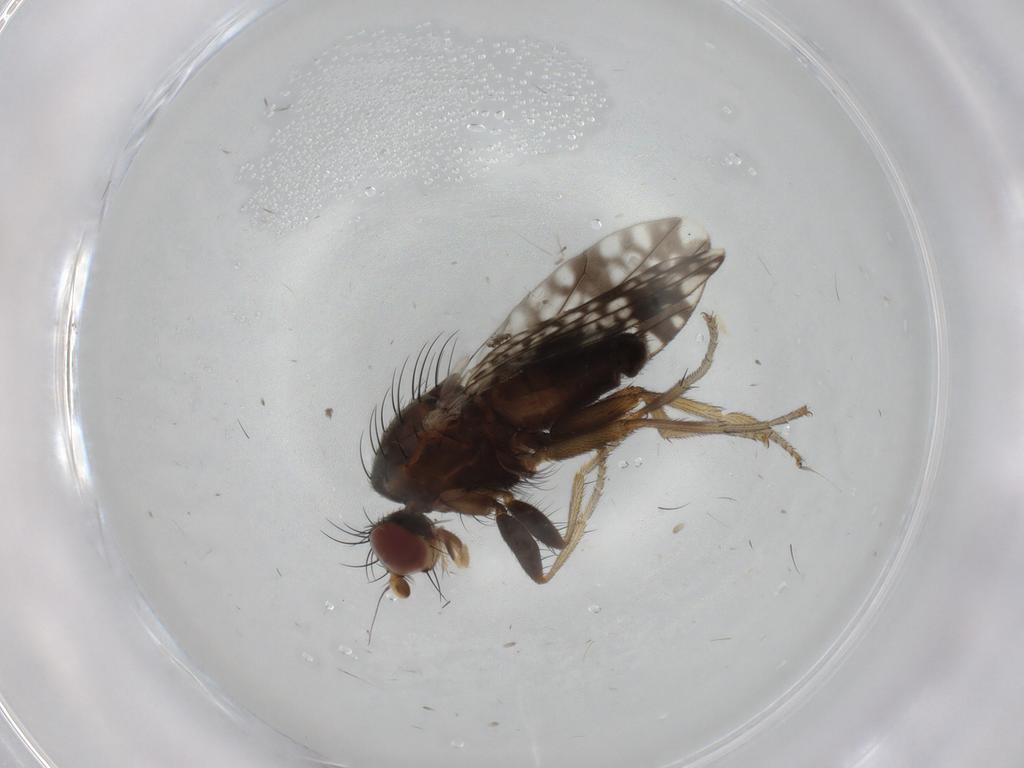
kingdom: Animalia
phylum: Arthropoda
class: Insecta
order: Diptera
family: Tephritidae
